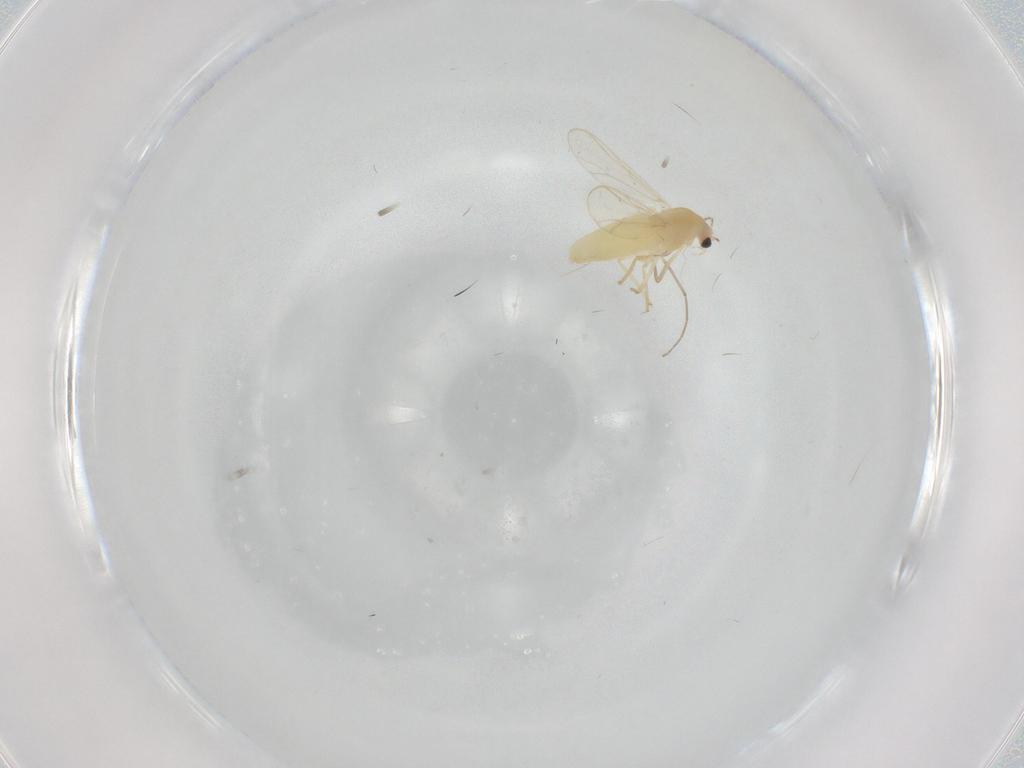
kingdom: Animalia
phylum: Arthropoda
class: Insecta
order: Diptera
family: Chironomidae
